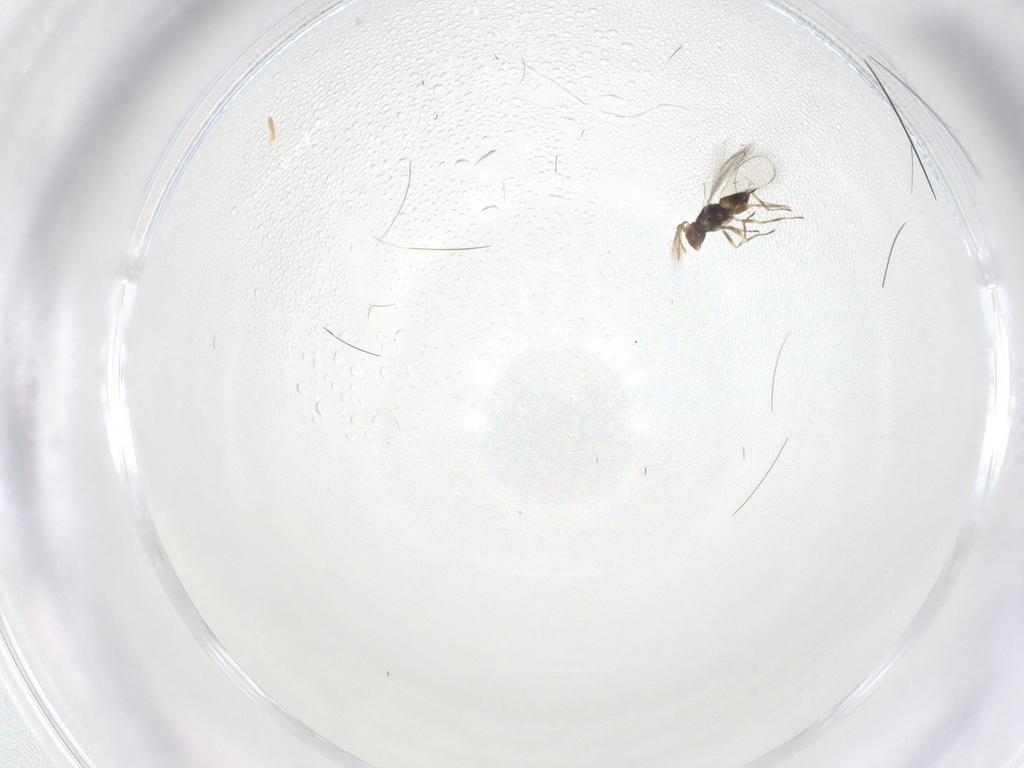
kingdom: Animalia
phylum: Arthropoda
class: Insecta
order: Hymenoptera
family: Eulophidae
